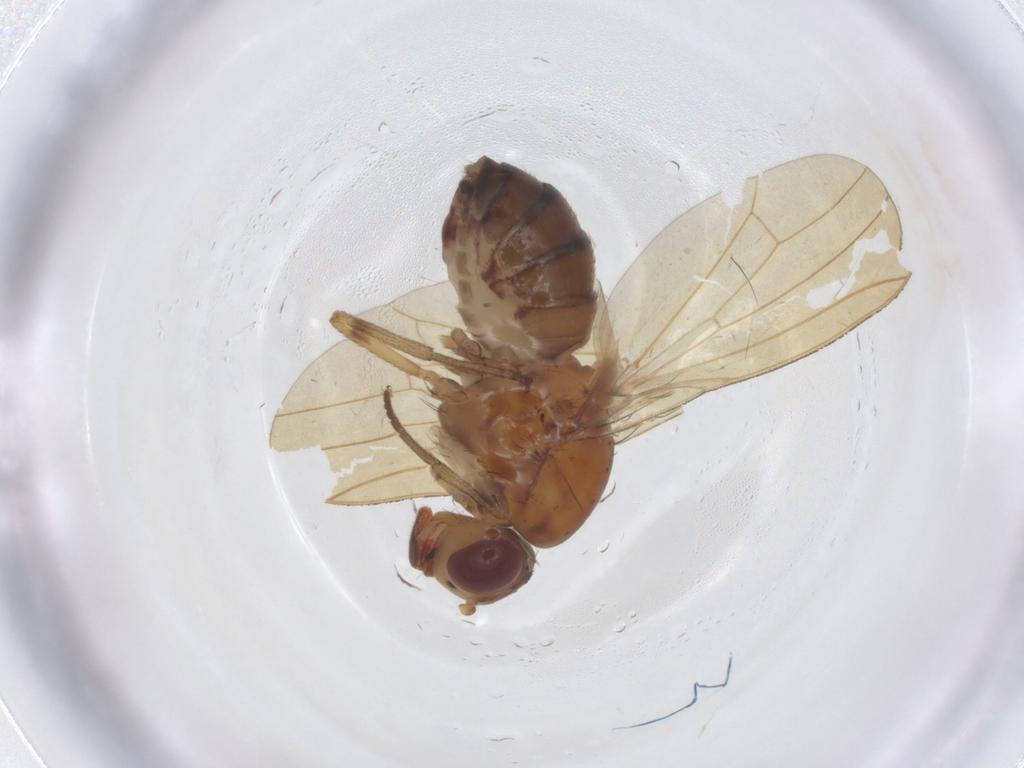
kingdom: Animalia
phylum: Arthropoda
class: Insecta
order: Diptera
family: Lauxaniidae
